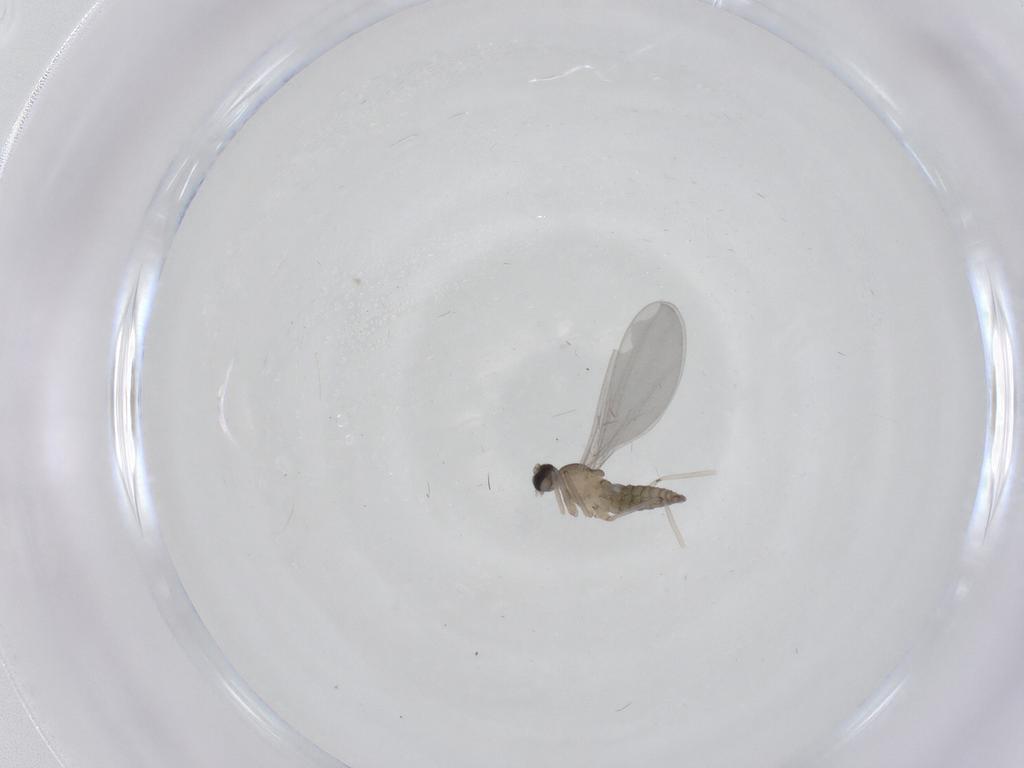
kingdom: Animalia
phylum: Arthropoda
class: Insecta
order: Diptera
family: Cecidomyiidae
